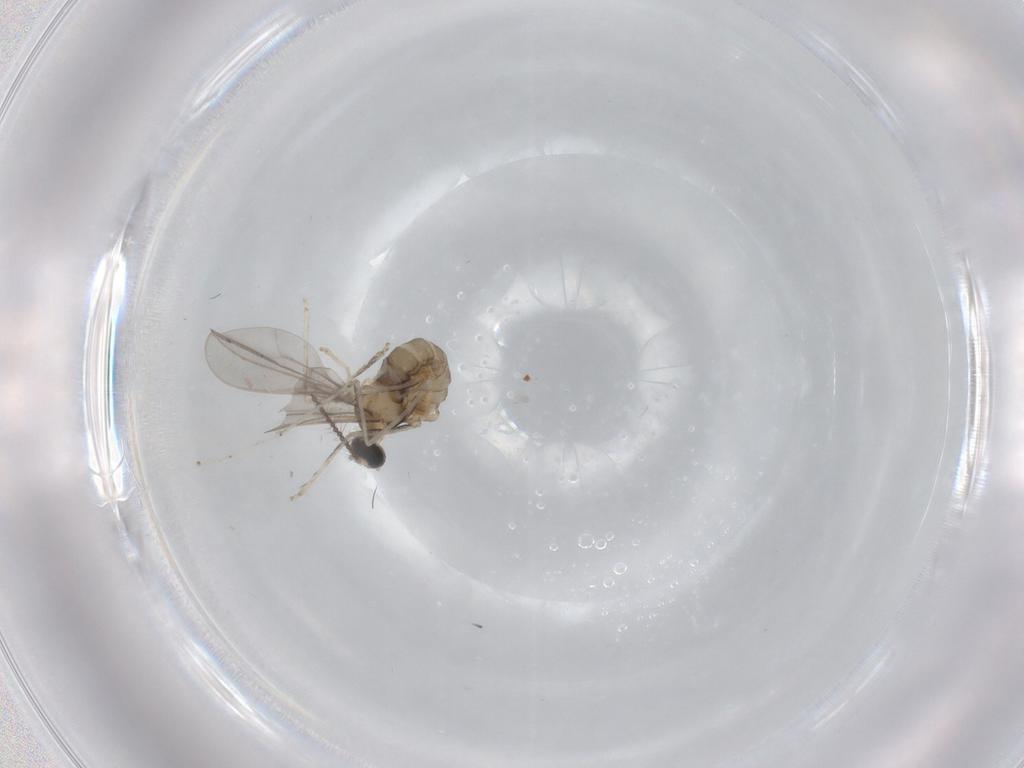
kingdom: Animalia
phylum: Arthropoda
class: Insecta
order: Diptera
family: Cecidomyiidae
